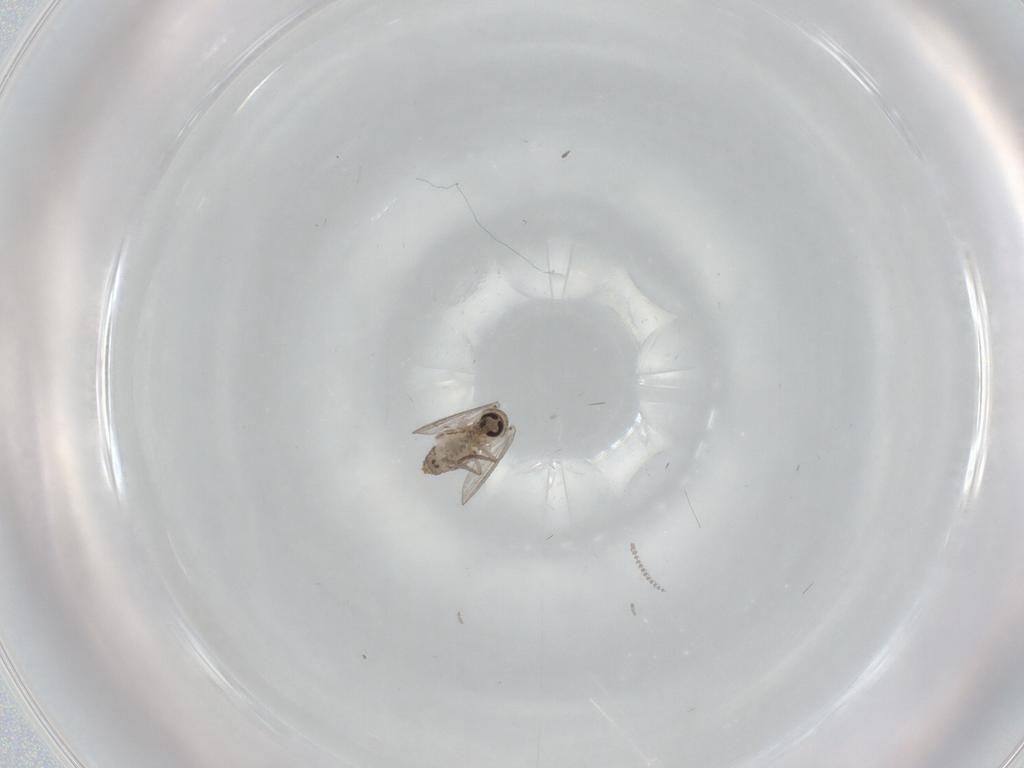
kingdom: Animalia
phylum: Arthropoda
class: Insecta
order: Diptera
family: Psychodidae
